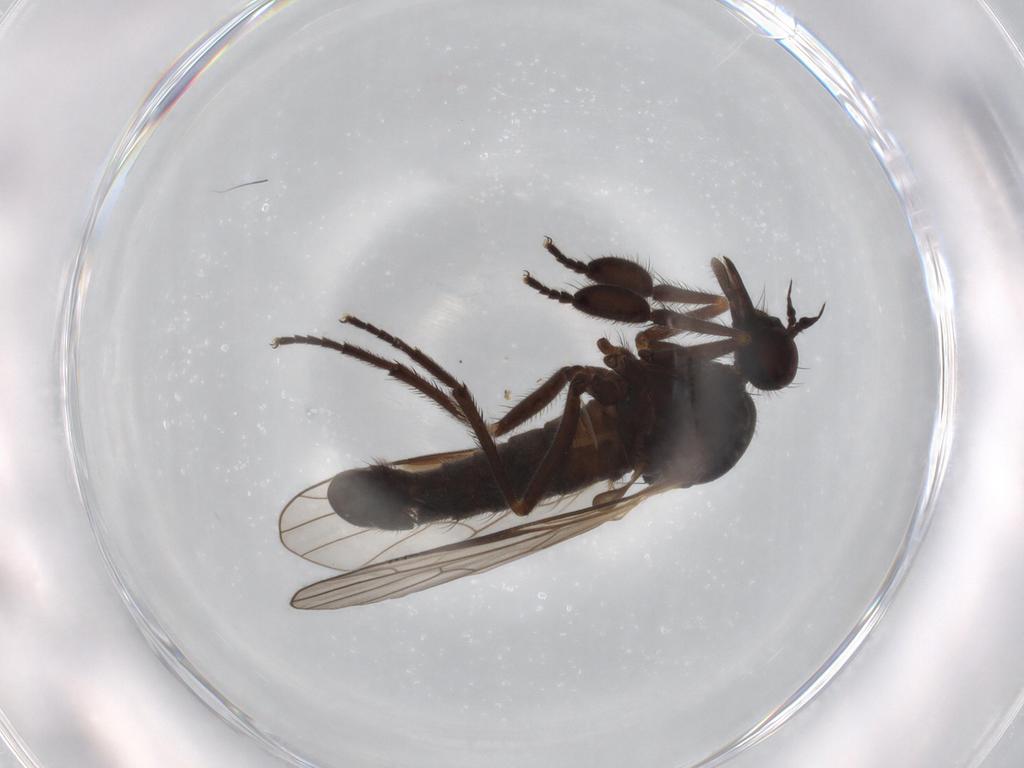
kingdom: Animalia
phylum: Arthropoda
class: Insecta
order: Diptera
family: Empididae
